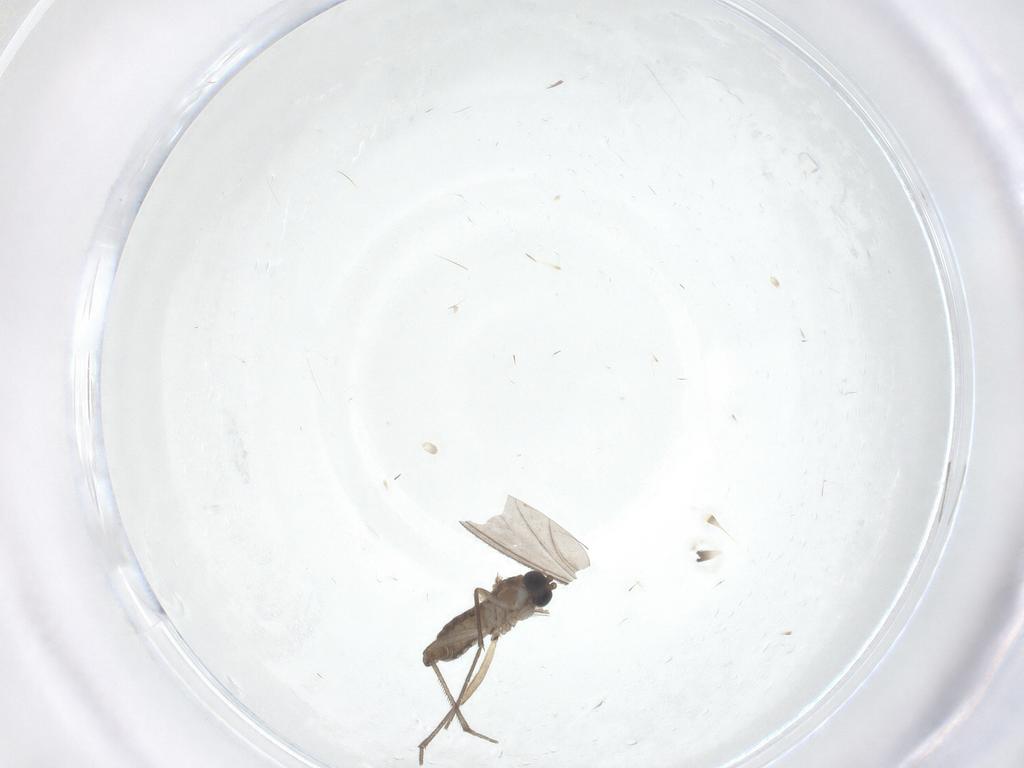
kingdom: Animalia
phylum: Arthropoda
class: Insecta
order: Diptera
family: Sciaridae
